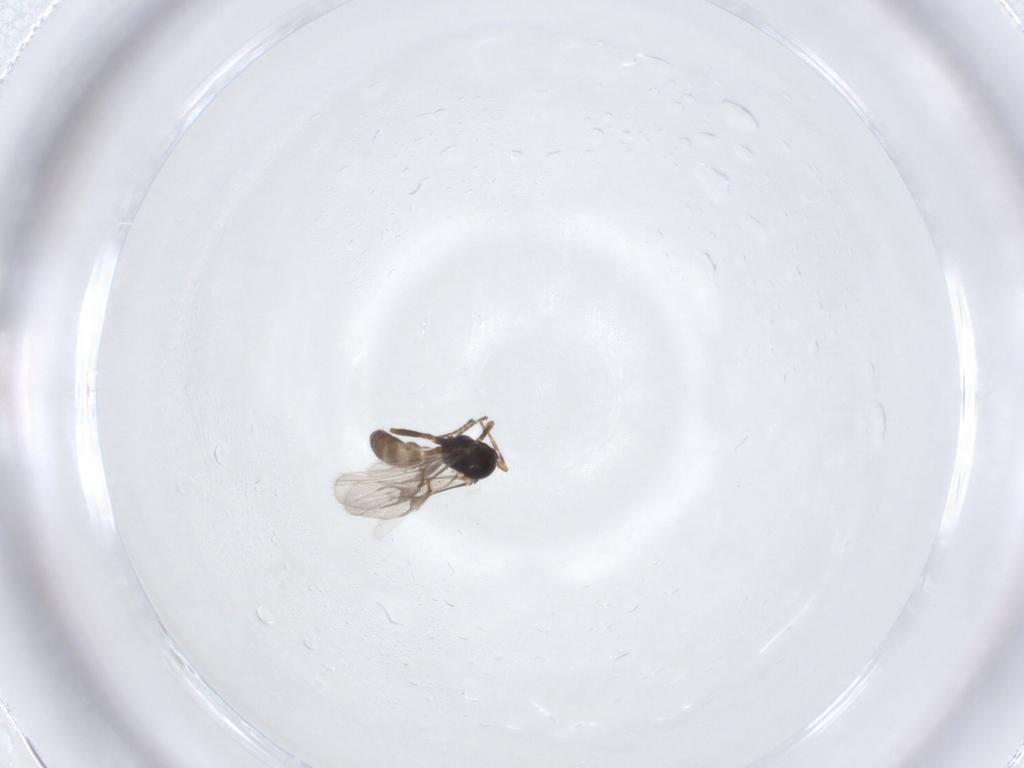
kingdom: Animalia
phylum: Arthropoda
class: Insecta
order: Hymenoptera
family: Braconidae
